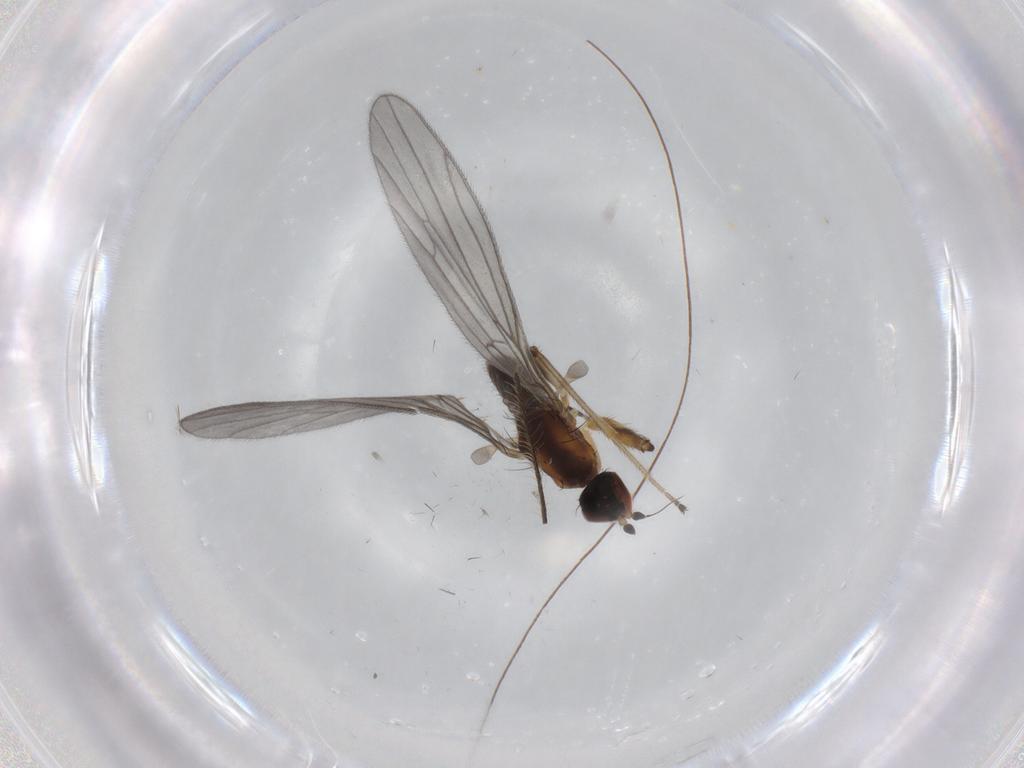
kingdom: Animalia
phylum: Arthropoda
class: Insecta
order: Diptera
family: Empididae
